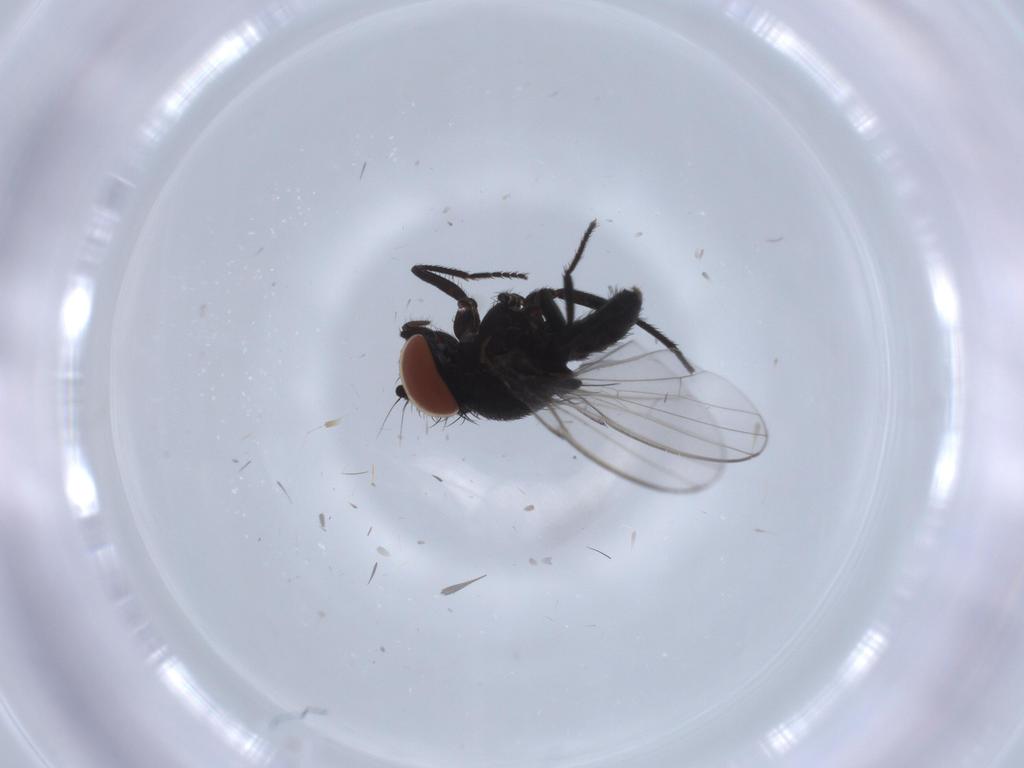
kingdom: Animalia
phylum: Arthropoda
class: Insecta
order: Diptera
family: Milichiidae
